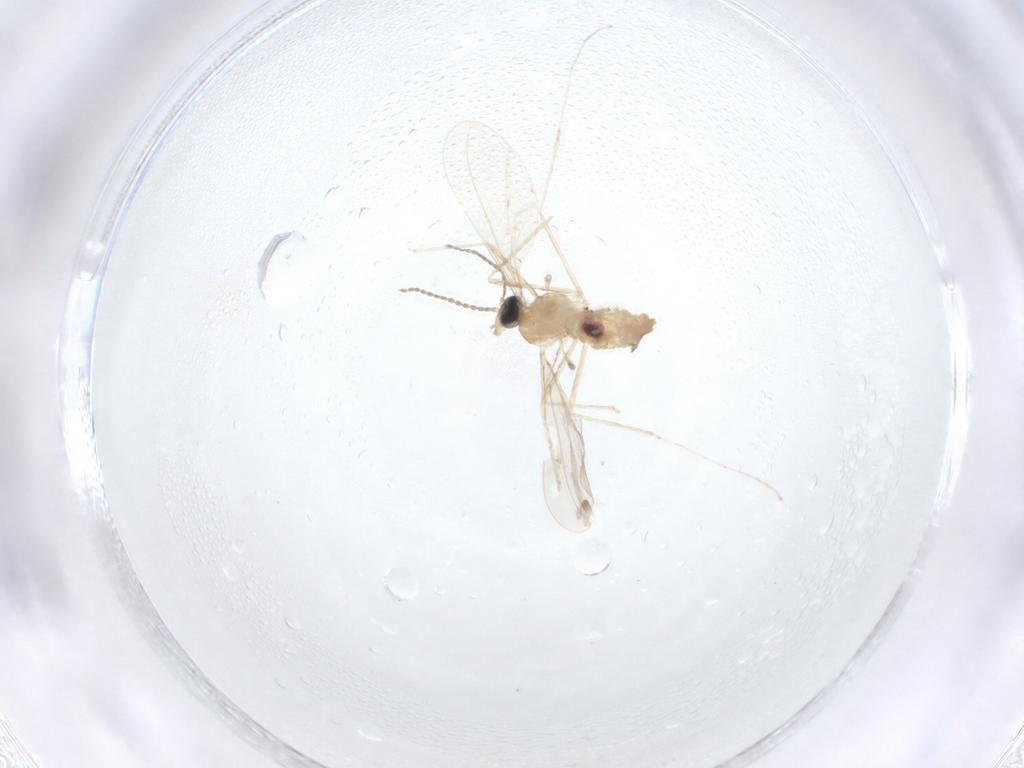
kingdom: Animalia
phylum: Arthropoda
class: Insecta
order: Diptera
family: Cecidomyiidae
